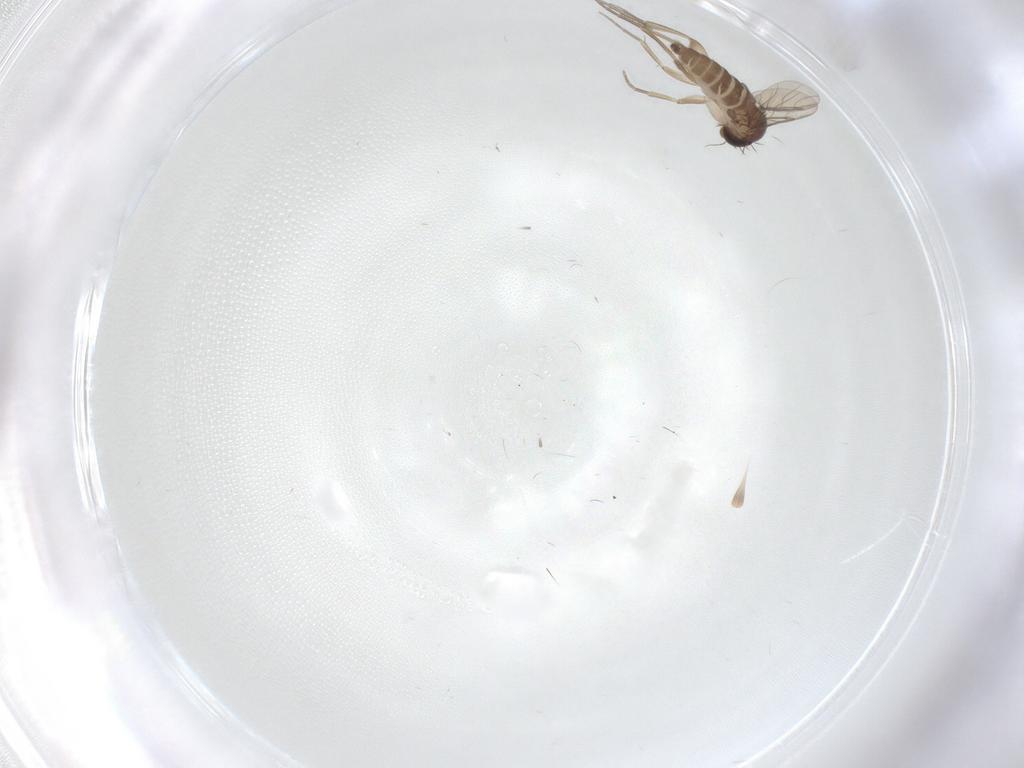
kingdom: Animalia
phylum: Arthropoda
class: Insecta
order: Diptera
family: Phoridae
